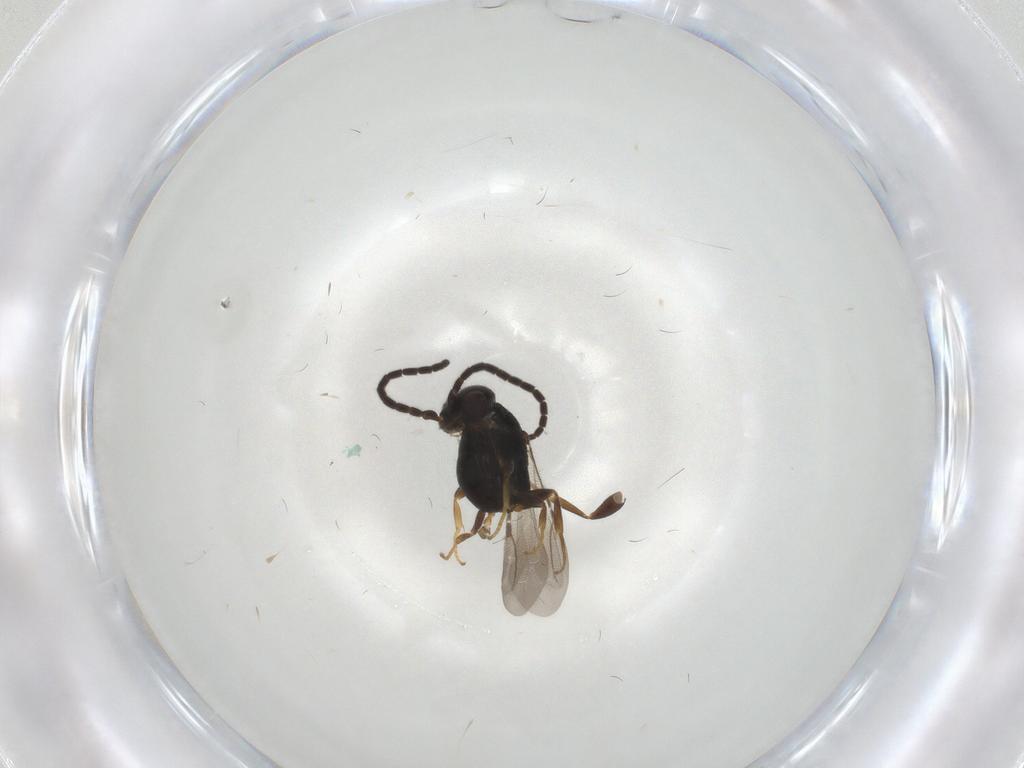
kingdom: Animalia
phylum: Arthropoda
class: Insecta
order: Hymenoptera
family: Bethylidae
